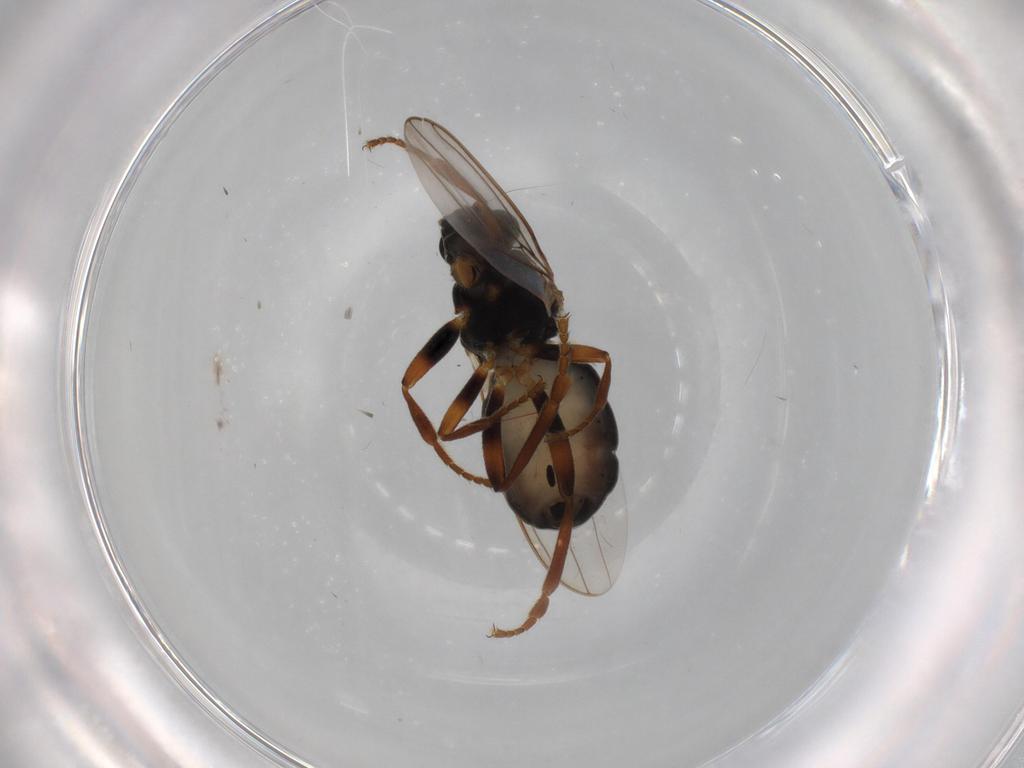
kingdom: Animalia
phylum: Arthropoda
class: Insecta
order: Diptera
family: Sphaeroceridae
